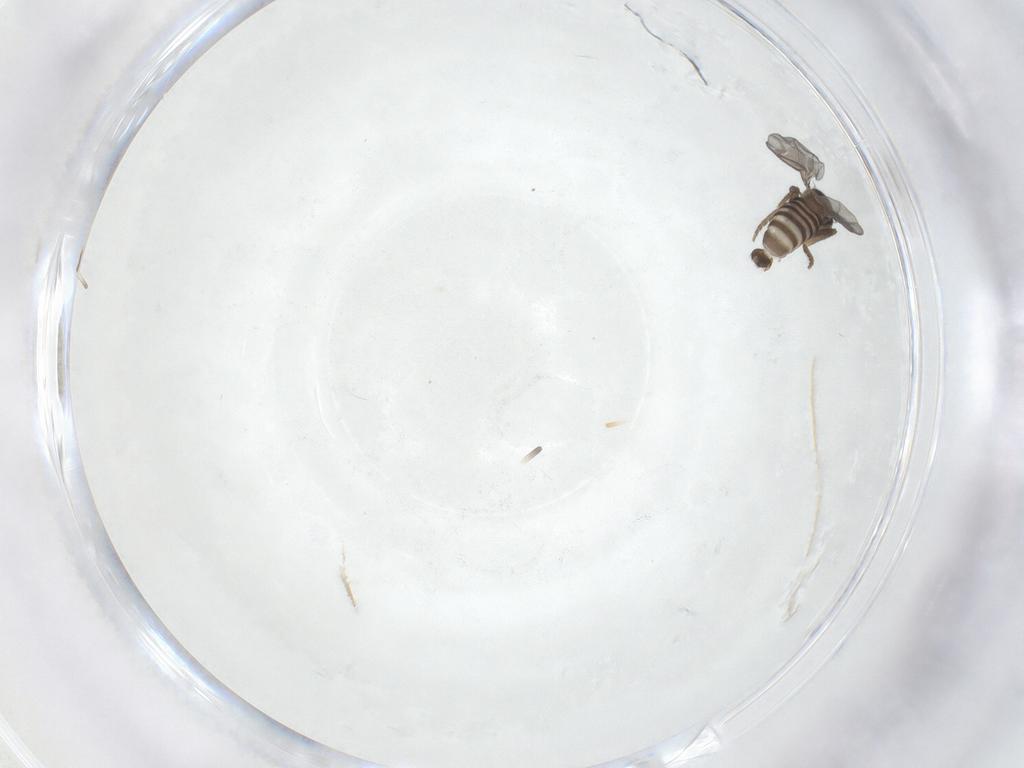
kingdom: Animalia
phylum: Arthropoda
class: Insecta
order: Diptera
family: Chironomidae
